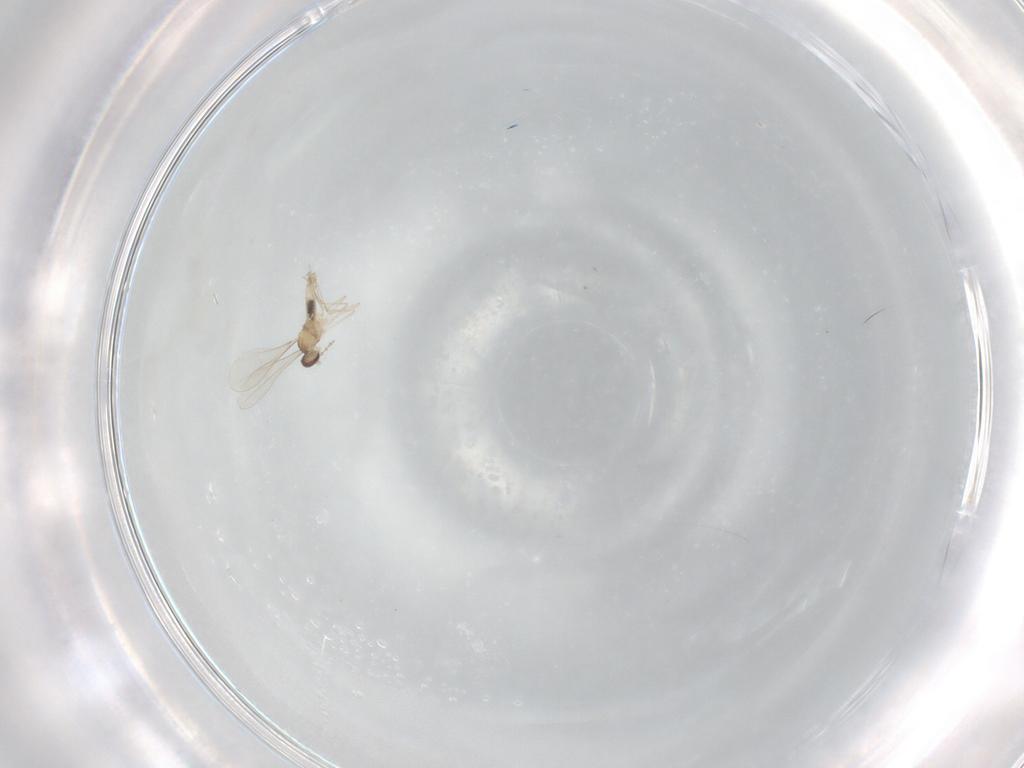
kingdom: Animalia
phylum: Arthropoda
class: Insecta
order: Diptera
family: Cecidomyiidae
